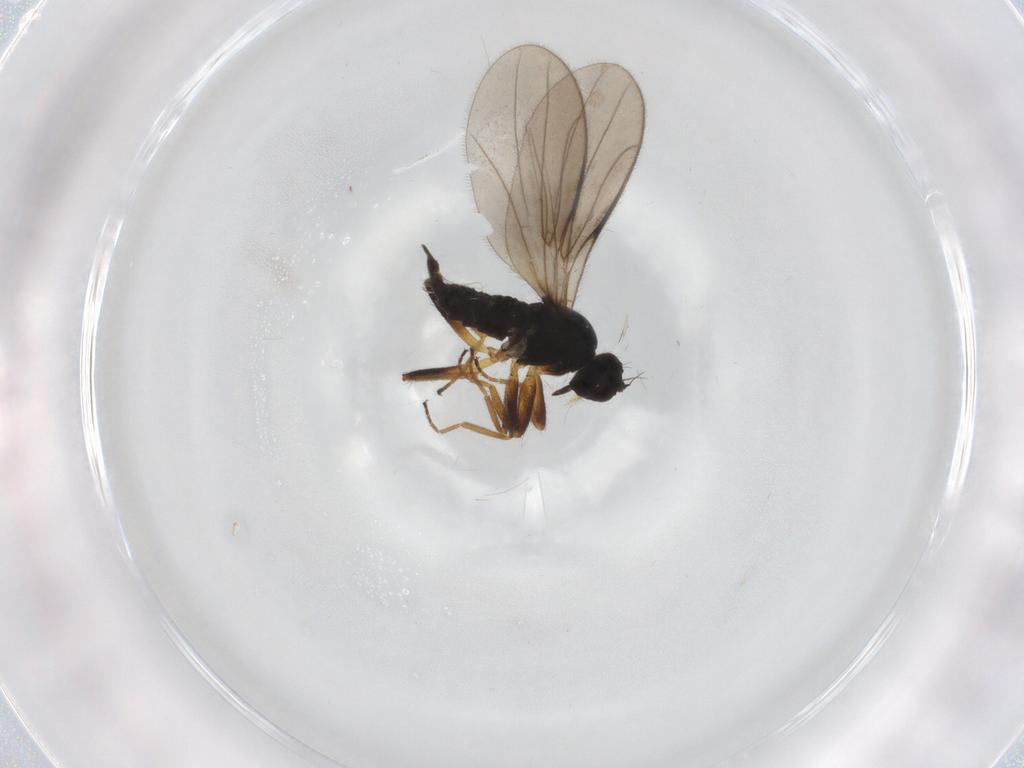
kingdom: Animalia
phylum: Arthropoda
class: Insecta
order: Diptera
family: Hybotidae
